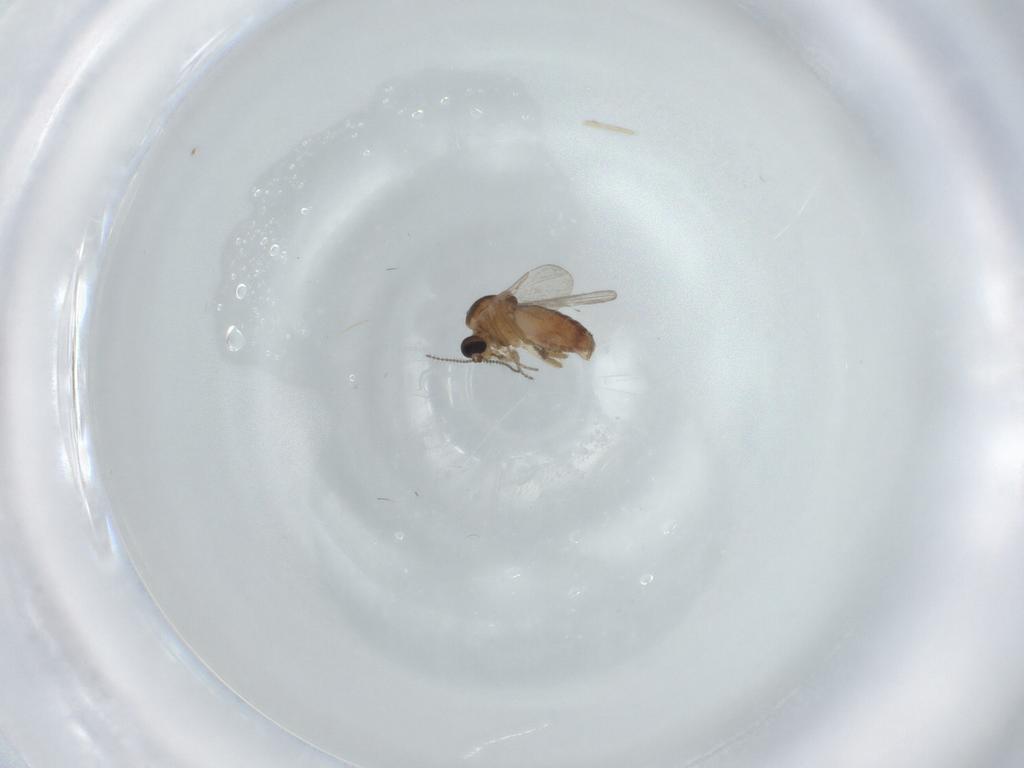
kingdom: Animalia
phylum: Arthropoda
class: Insecta
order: Diptera
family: Ceratopogonidae
